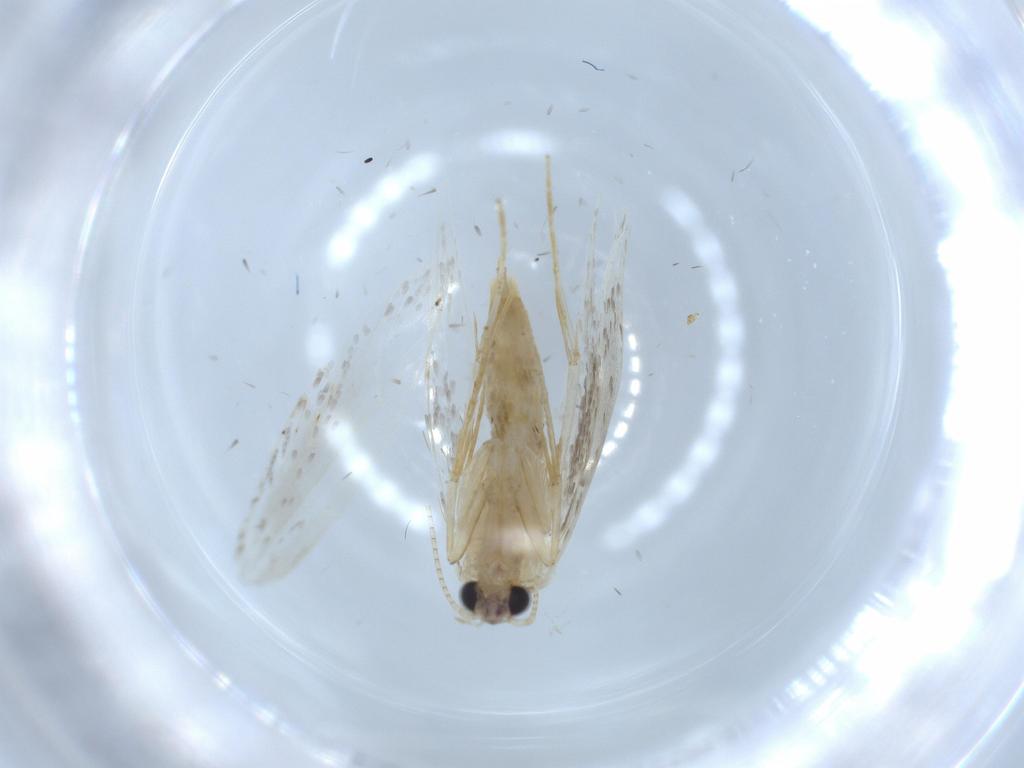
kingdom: Animalia
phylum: Arthropoda
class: Insecta
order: Lepidoptera
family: Tineidae
